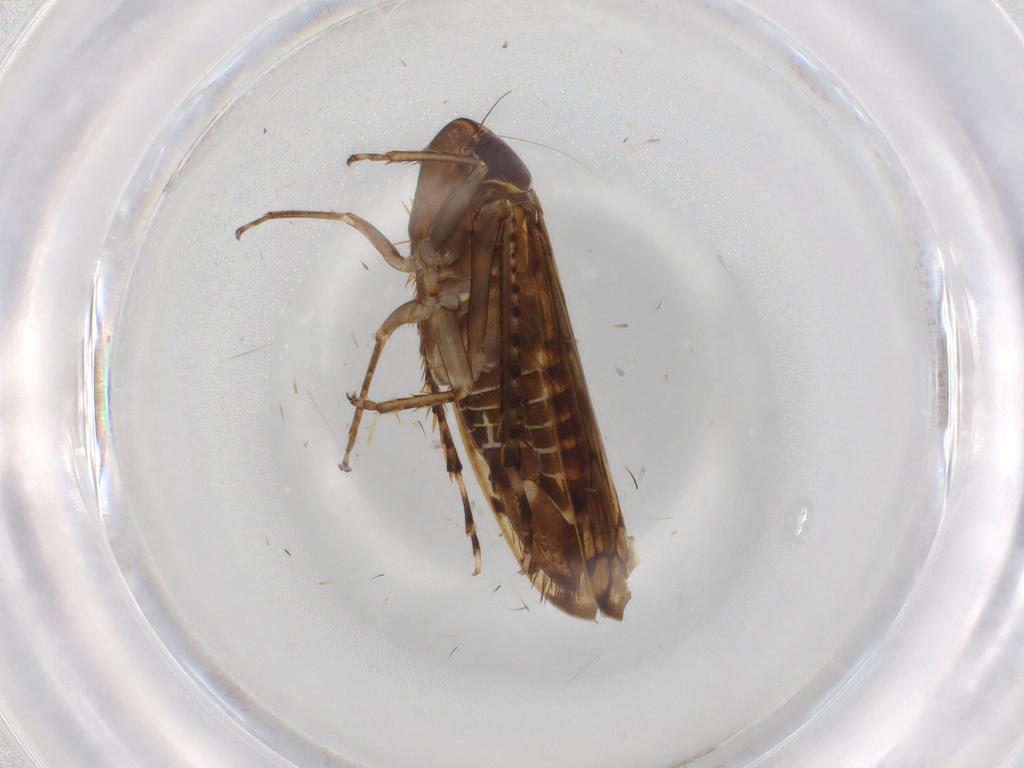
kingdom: Animalia
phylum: Arthropoda
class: Insecta
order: Hemiptera
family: Cicadellidae
